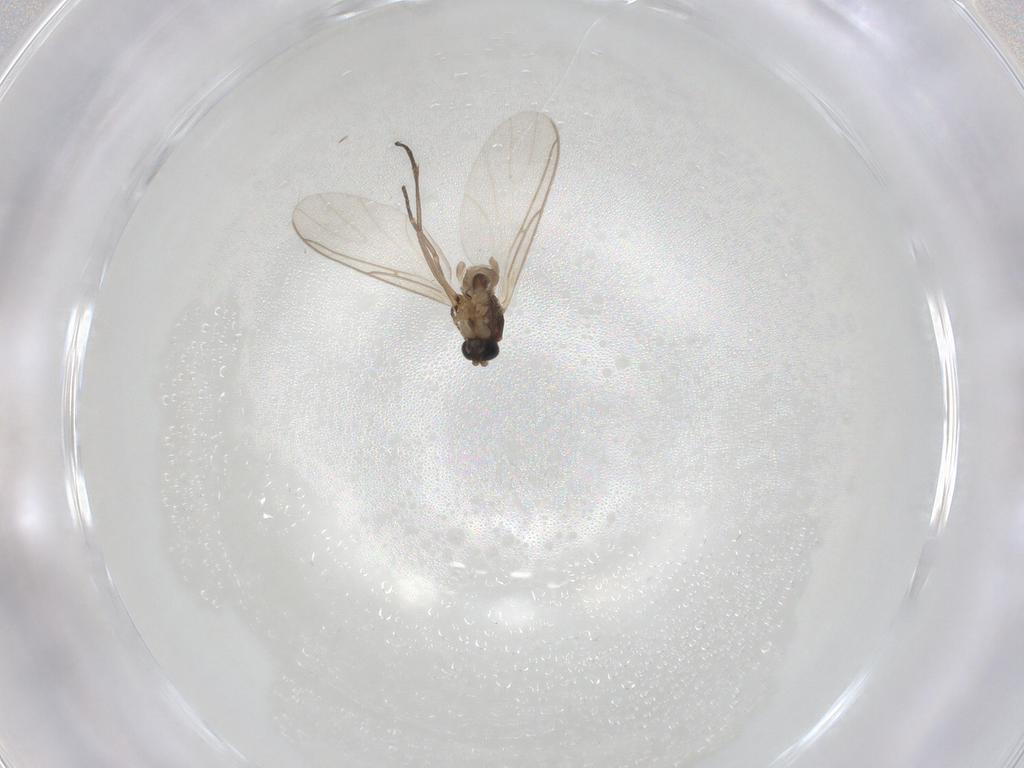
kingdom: Animalia
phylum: Arthropoda
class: Insecta
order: Diptera
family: Sciaridae
